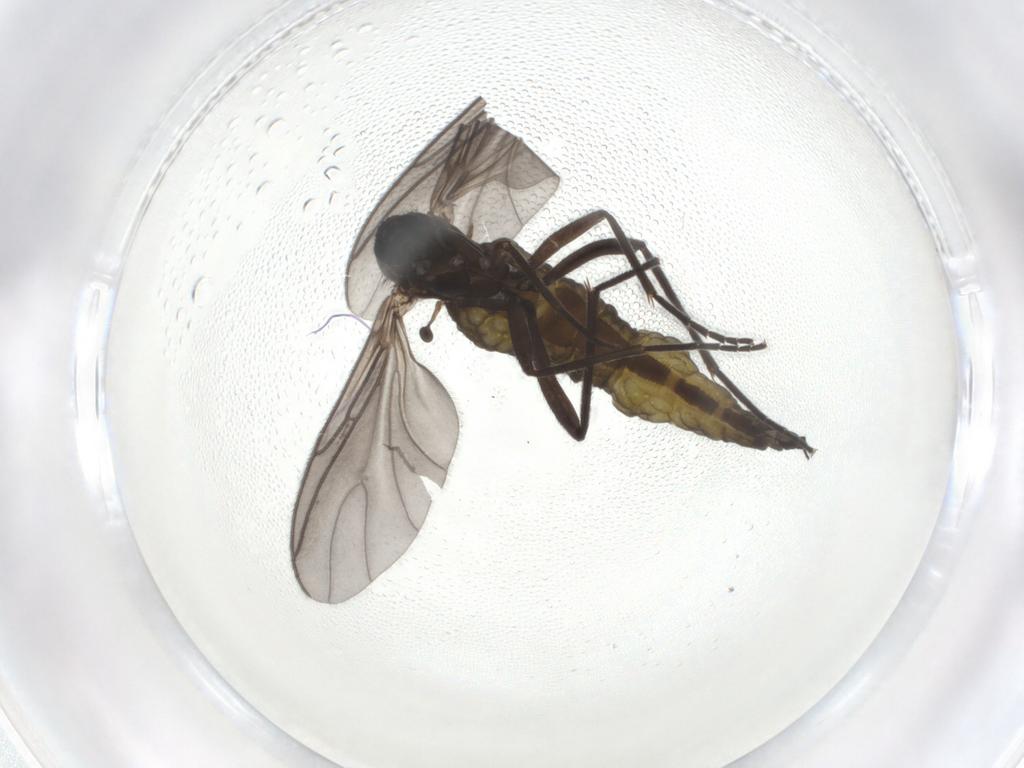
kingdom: Animalia
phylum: Arthropoda
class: Insecta
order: Diptera
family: Sciaridae
